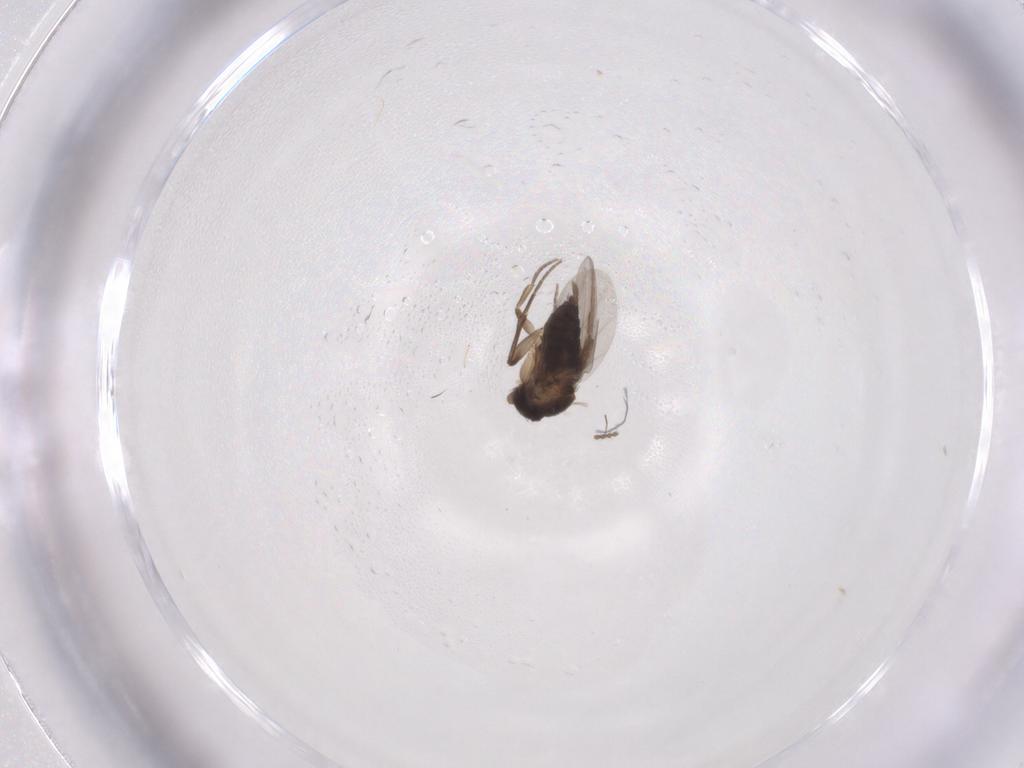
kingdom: Animalia
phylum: Arthropoda
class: Insecta
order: Diptera
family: Phoridae
